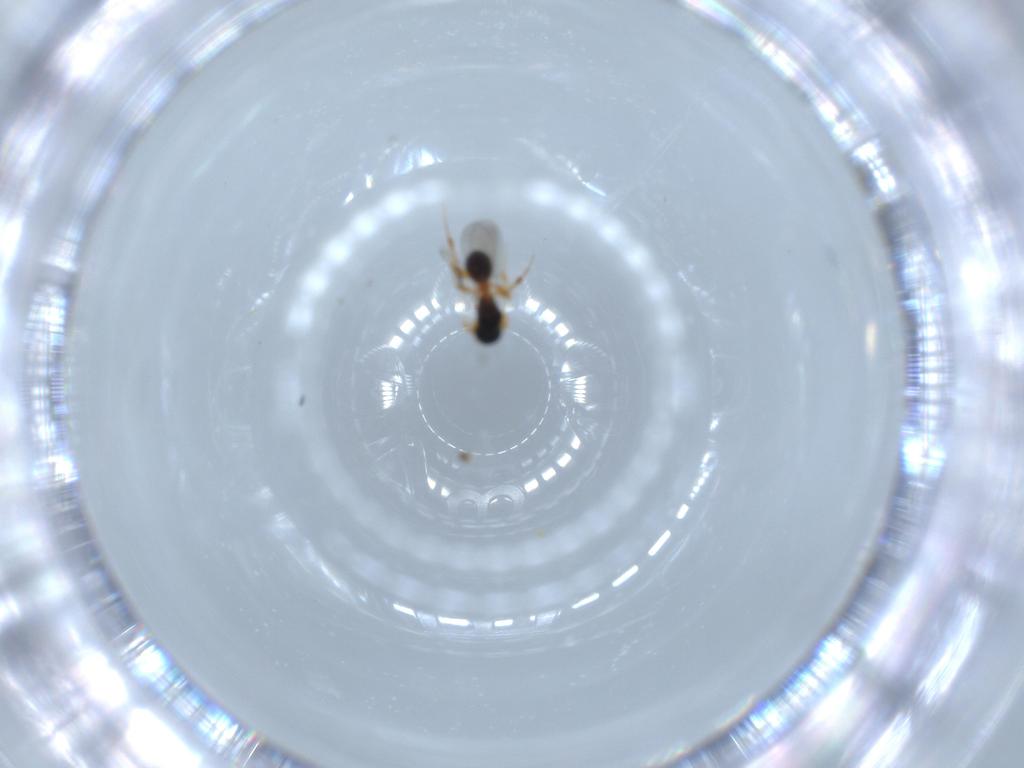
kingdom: Animalia
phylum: Arthropoda
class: Insecta
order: Hymenoptera
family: Platygastridae
